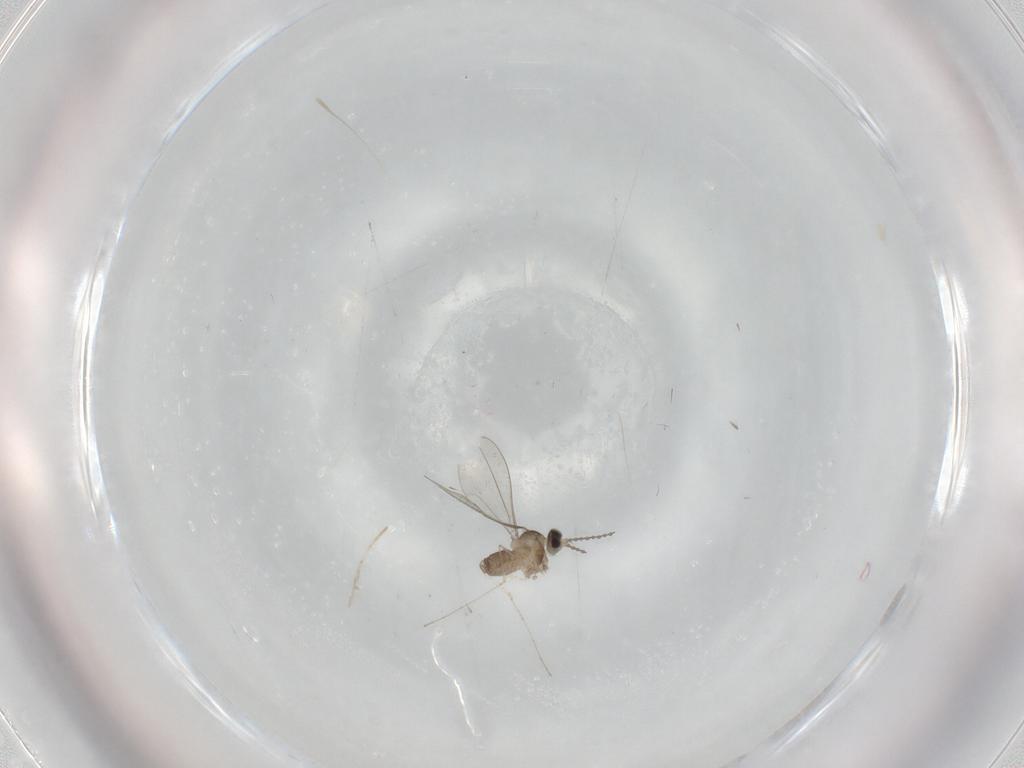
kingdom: Animalia
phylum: Arthropoda
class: Insecta
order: Diptera
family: Cecidomyiidae
